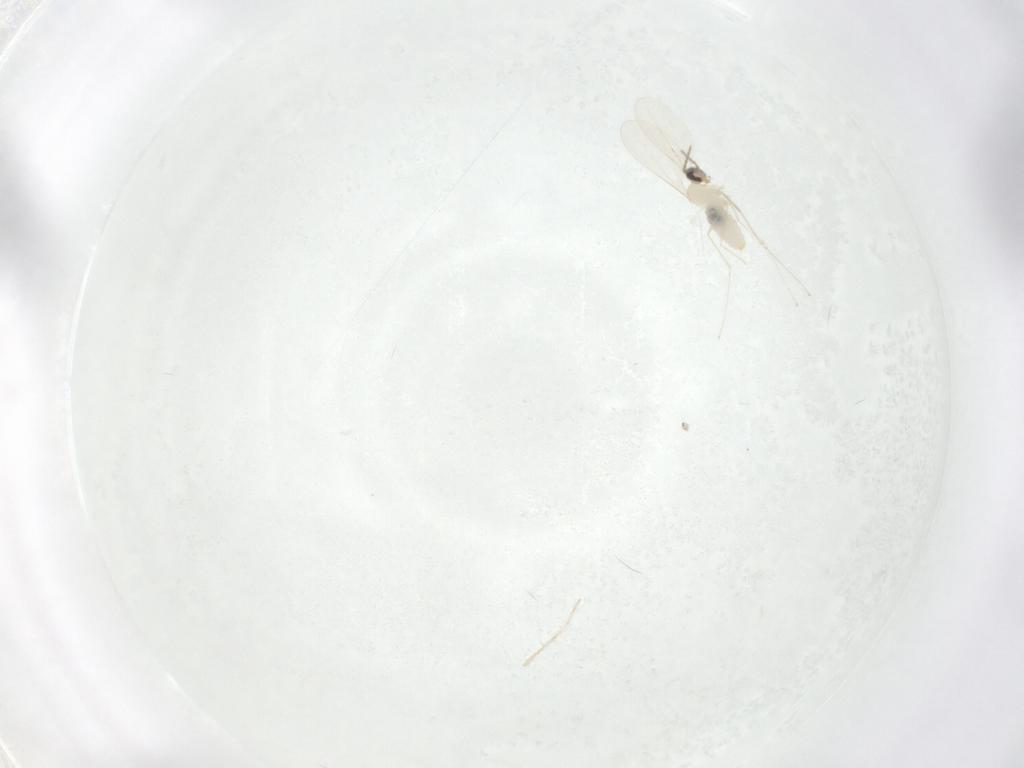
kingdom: Animalia
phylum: Arthropoda
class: Insecta
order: Diptera
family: Cecidomyiidae
